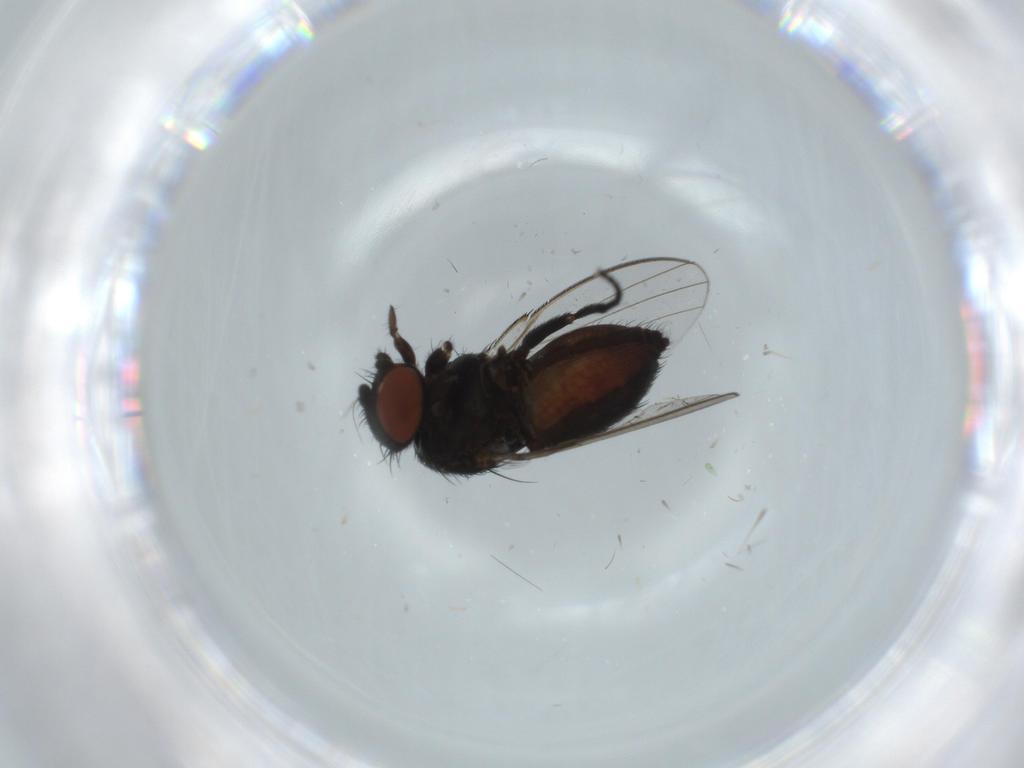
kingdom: Animalia
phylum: Arthropoda
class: Insecta
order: Diptera
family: Milichiidae
